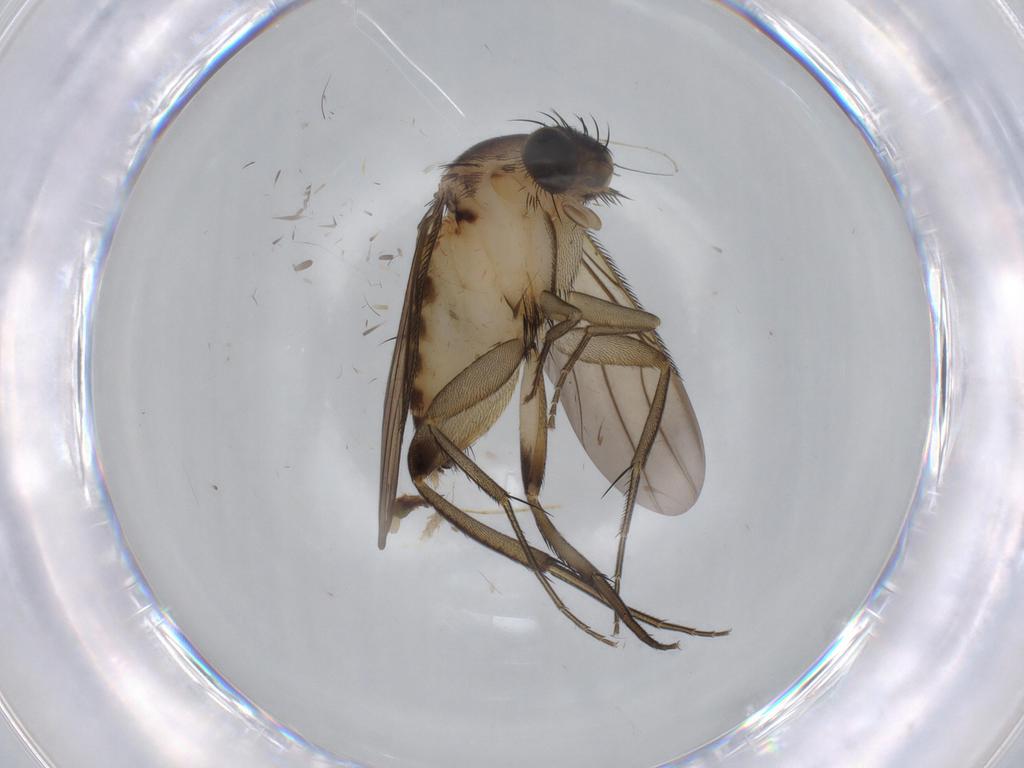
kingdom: Animalia
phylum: Arthropoda
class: Insecta
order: Diptera
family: Phoridae
